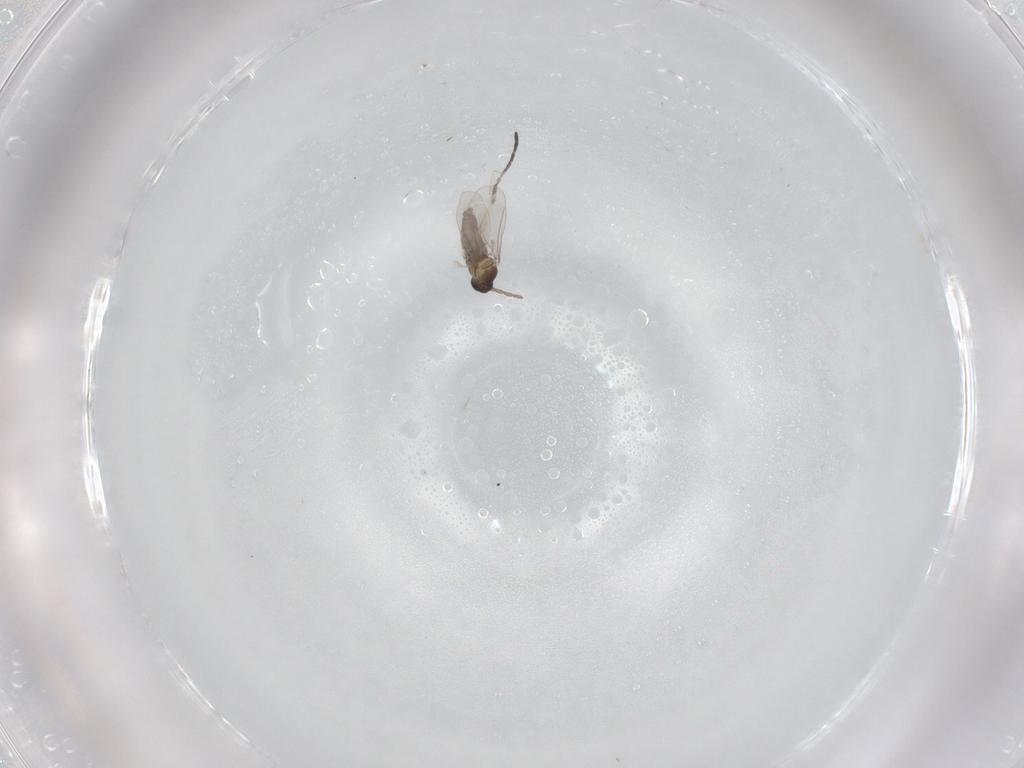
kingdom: Animalia
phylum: Arthropoda
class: Insecta
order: Diptera
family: Cecidomyiidae
